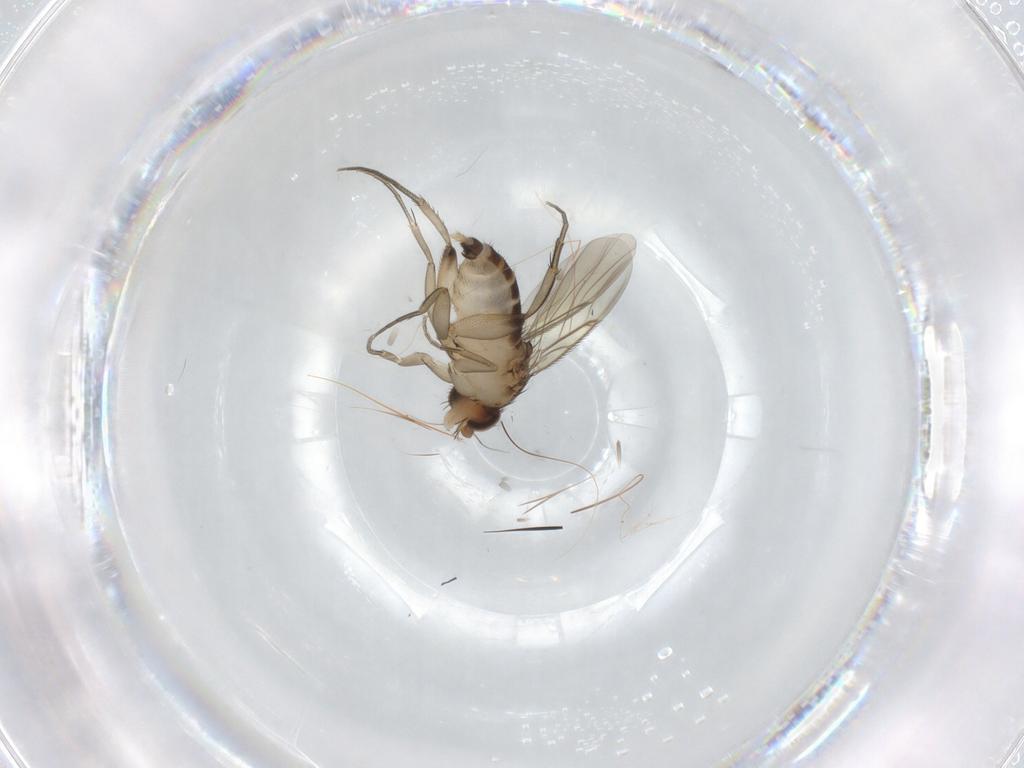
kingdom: Animalia
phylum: Arthropoda
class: Insecta
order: Diptera
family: Phoridae
